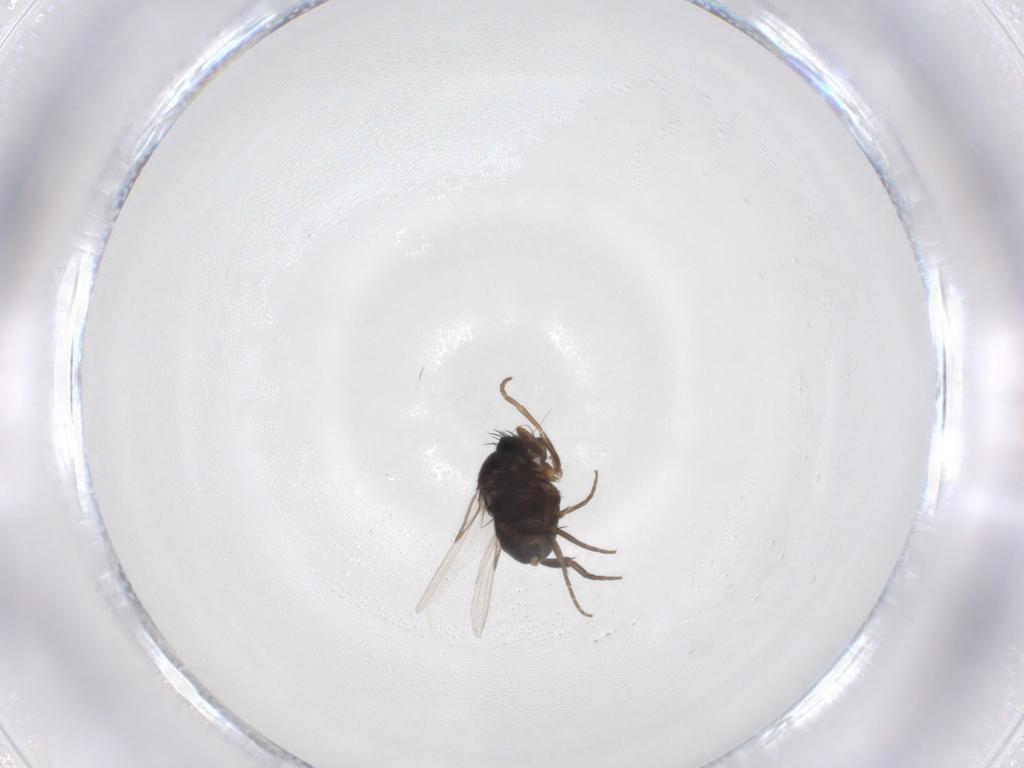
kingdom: Animalia
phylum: Arthropoda
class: Insecta
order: Diptera
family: Phoridae
